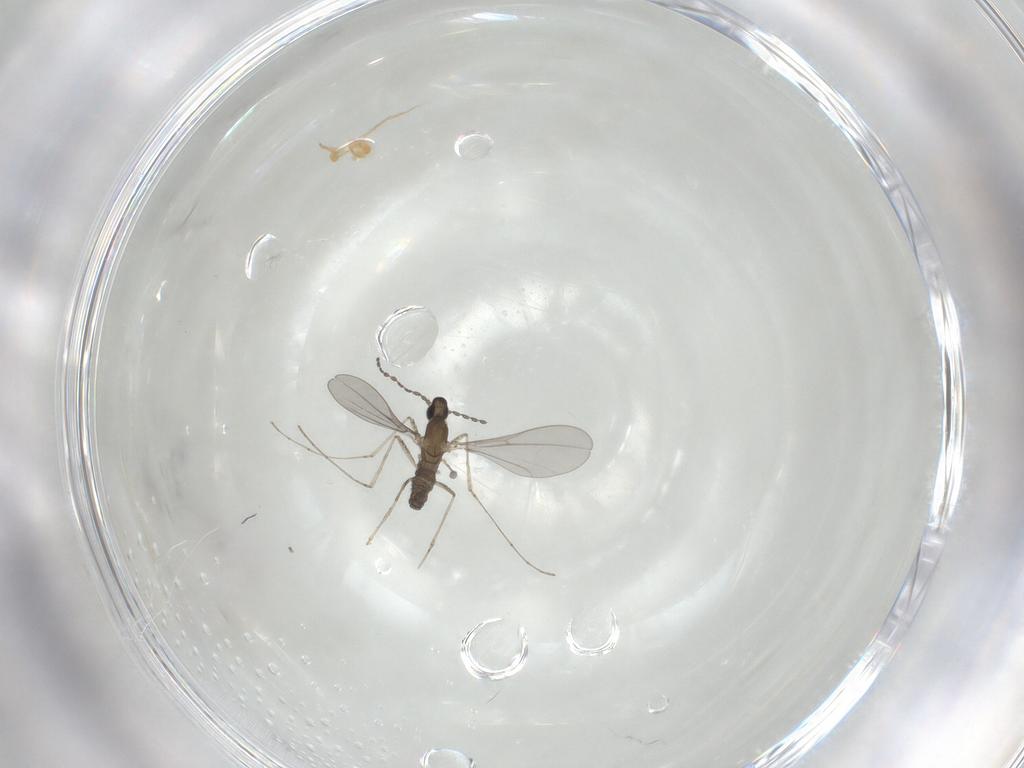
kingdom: Animalia
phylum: Arthropoda
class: Insecta
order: Diptera
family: Cecidomyiidae
